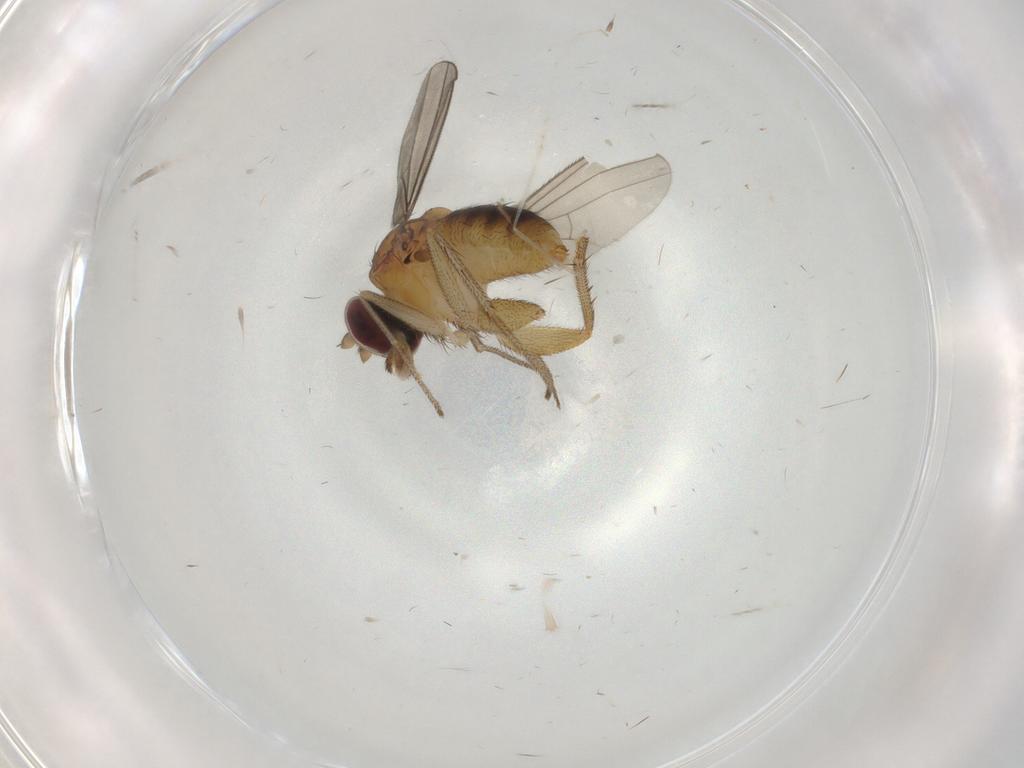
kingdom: Animalia
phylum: Arthropoda
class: Insecta
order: Diptera
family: Dolichopodidae
